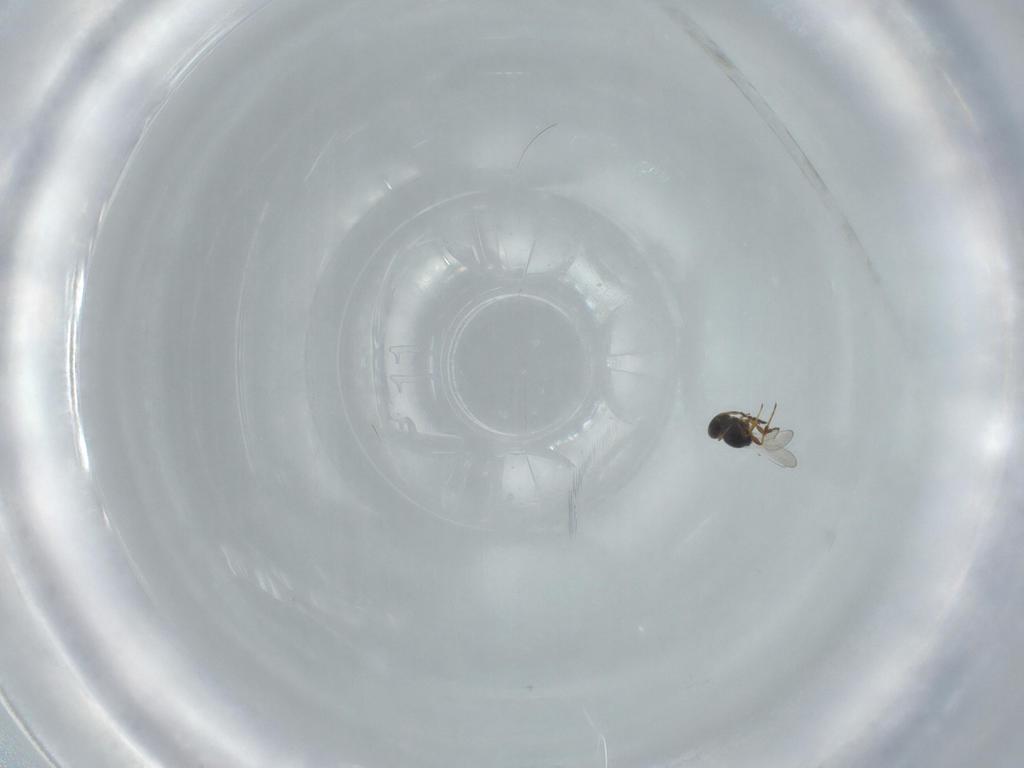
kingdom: Animalia
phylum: Arthropoda
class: Insecta
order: Hymenoptera
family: Platygastridae
